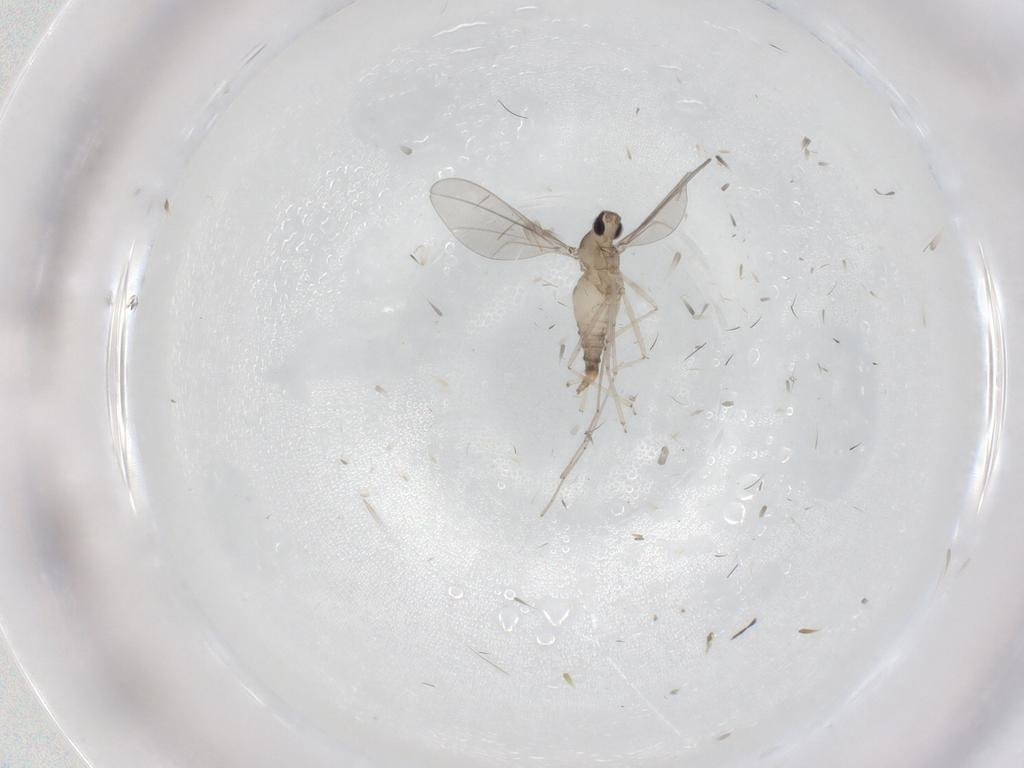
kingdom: Animalia
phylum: Arthropoda
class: Insecta
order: Diptera
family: Cecidomyiidae
